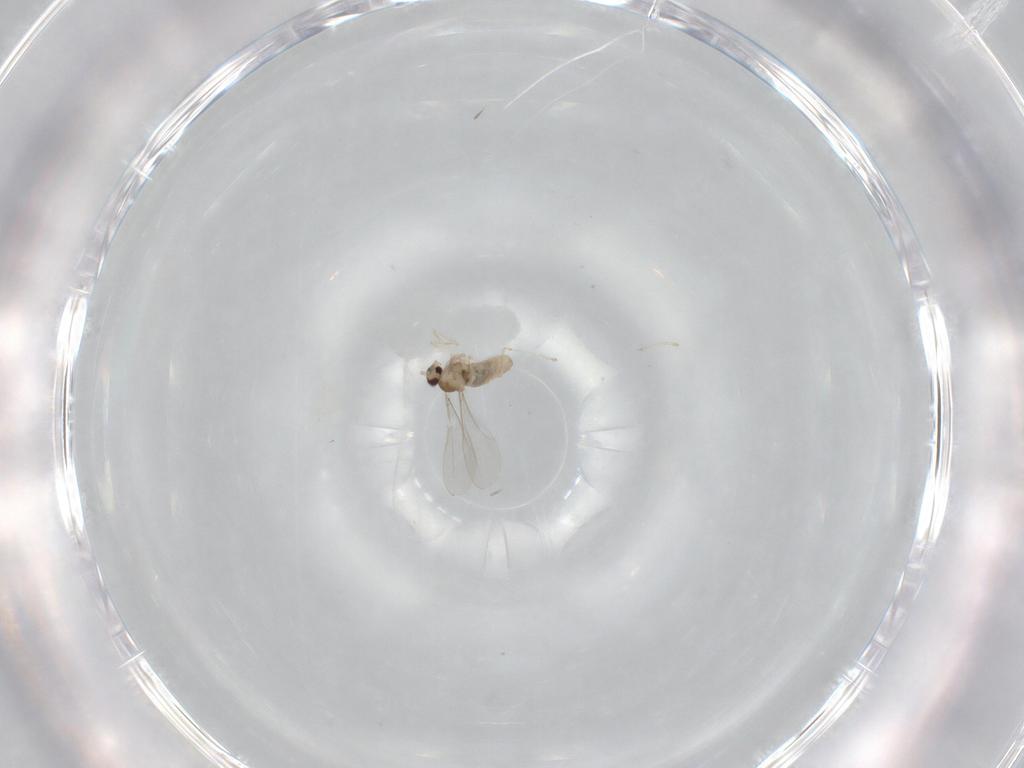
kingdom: Animalia
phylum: Arthropoda
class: Insecta
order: Diptera
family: Cecidomyiidae
